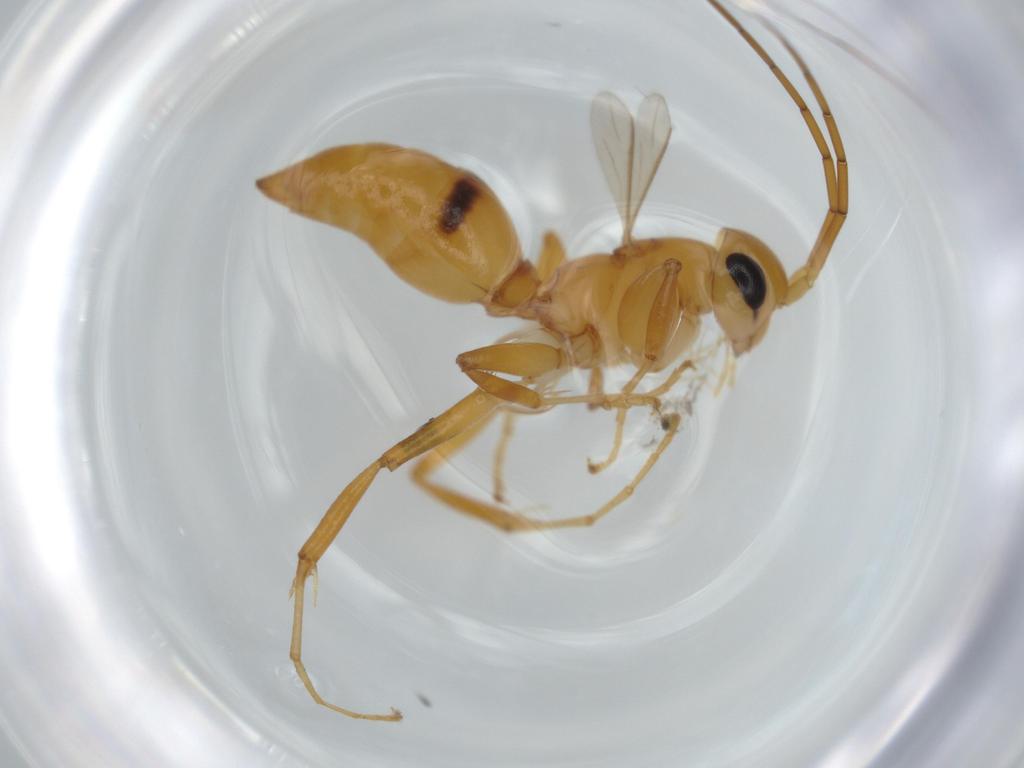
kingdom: Animalia
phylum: Arthropoda
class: Insecta
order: Hymenoptera
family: Rhopalosomatidae
